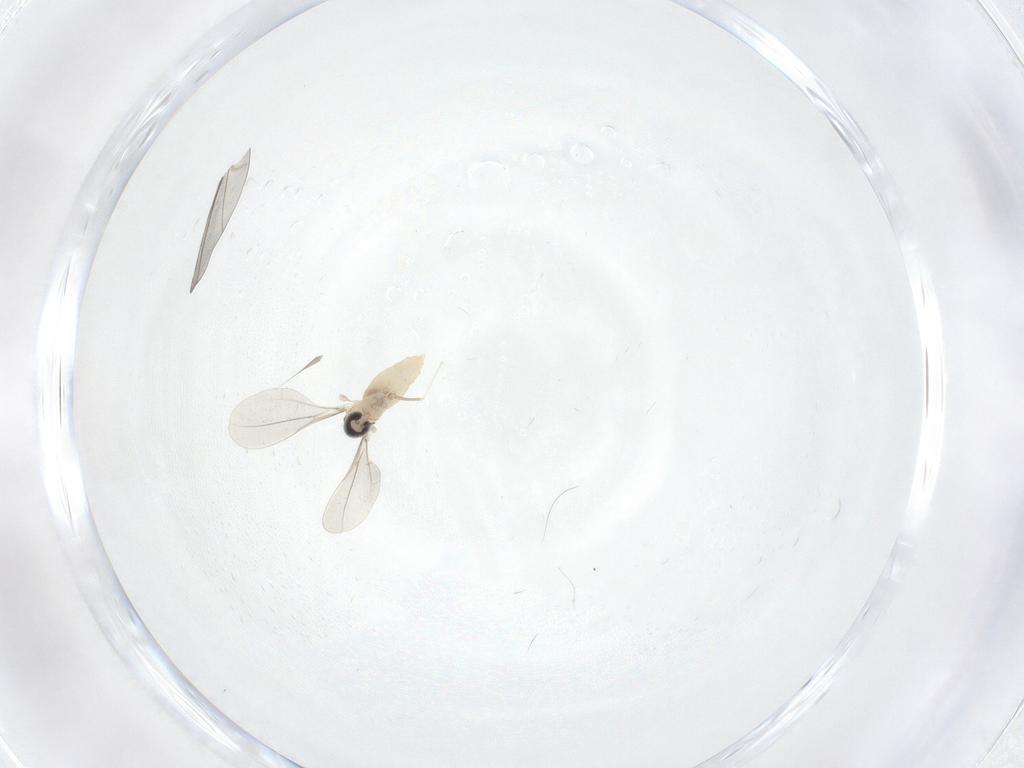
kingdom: Animalia
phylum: Arthropoda
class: Insecta
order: Diptera
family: Cecidomyiidae
